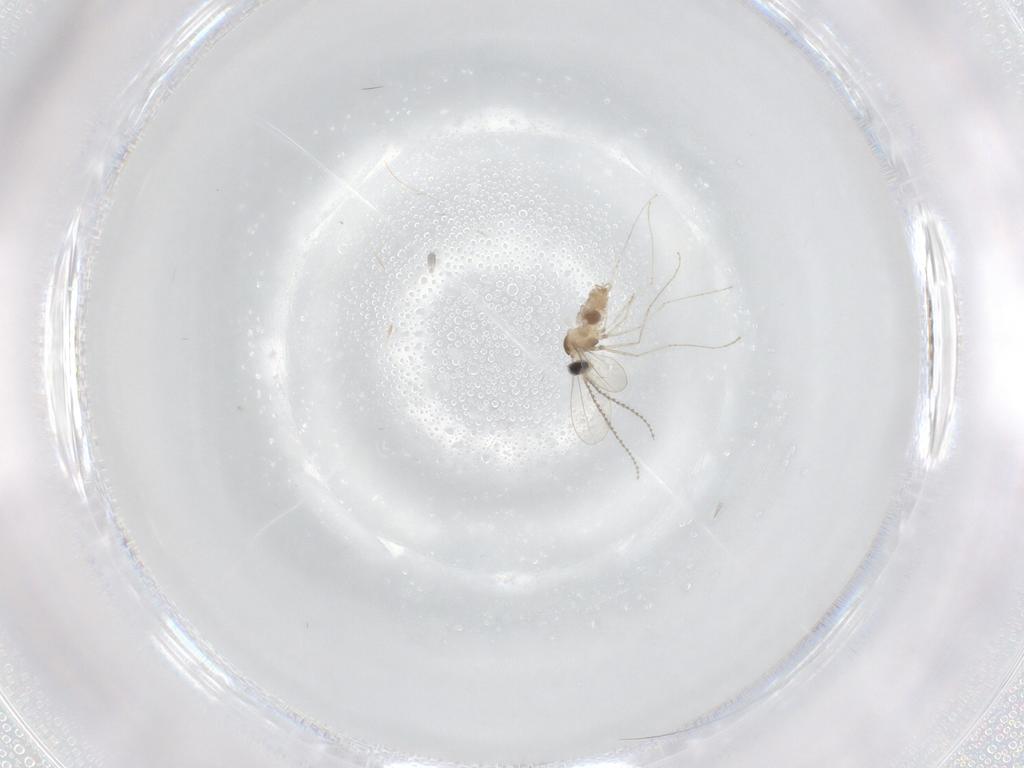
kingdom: Animalia
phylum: Arthropoda
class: Insecta
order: Diptera
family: Cecidomyiidae
